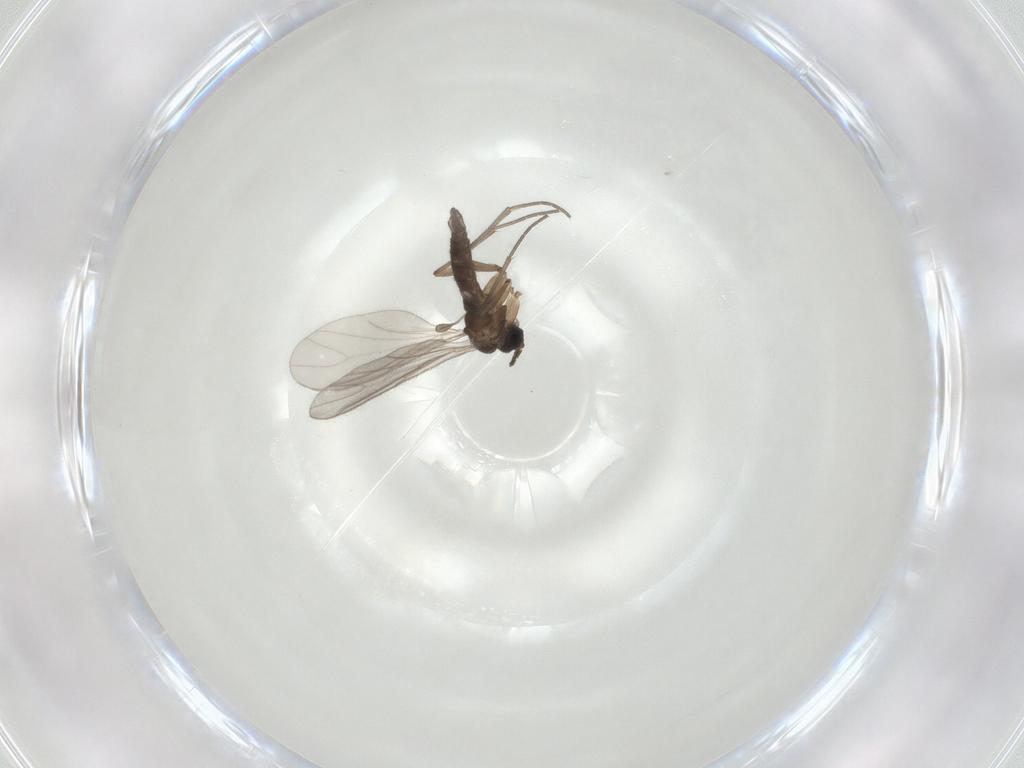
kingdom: Animalia
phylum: Arthropoda
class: Insecta
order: Diptera
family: Sciaridae
